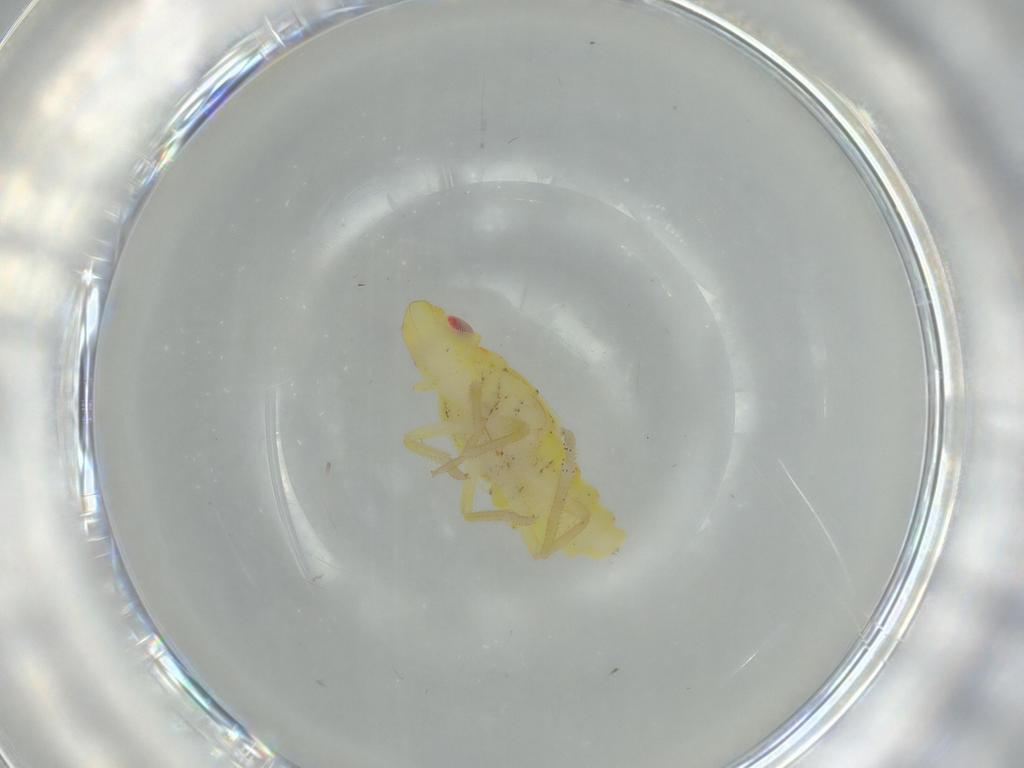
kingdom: Animalia
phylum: Arthropoda
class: Insecta
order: Hemiptera
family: Tropiduchidae
